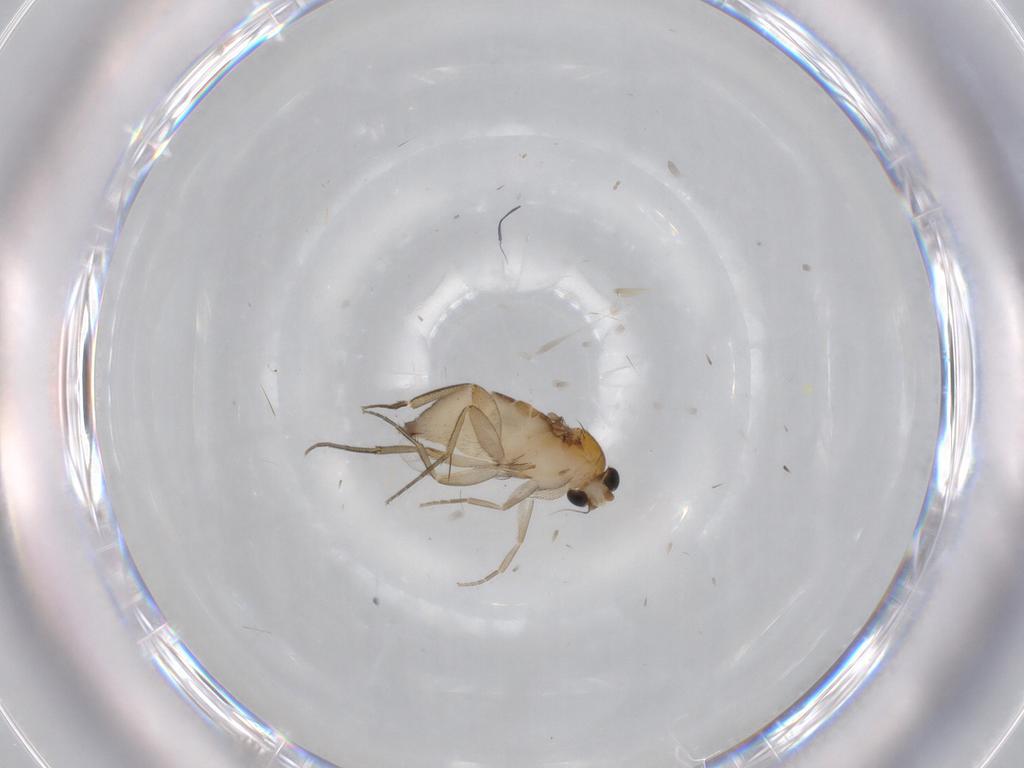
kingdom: Animalia
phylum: Arthropoda
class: Insecta
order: Diptera
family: Phoridae
